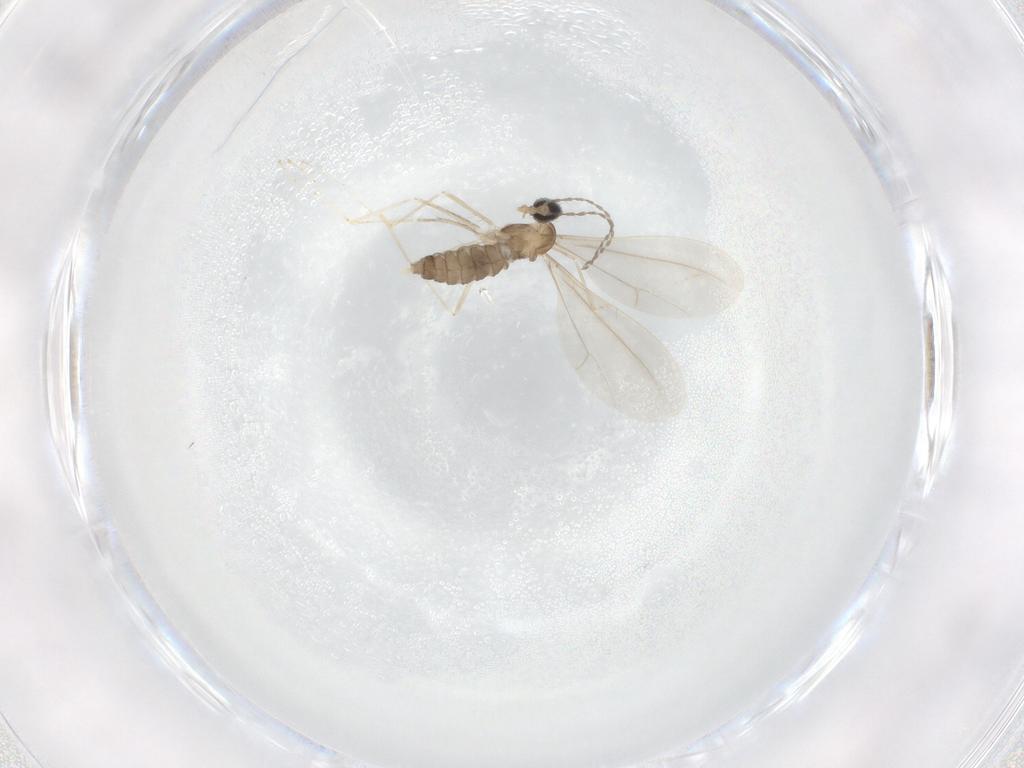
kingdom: Animalia
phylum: Arthropoda
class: Insecta
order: Diptera
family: Cecidomyiidae
